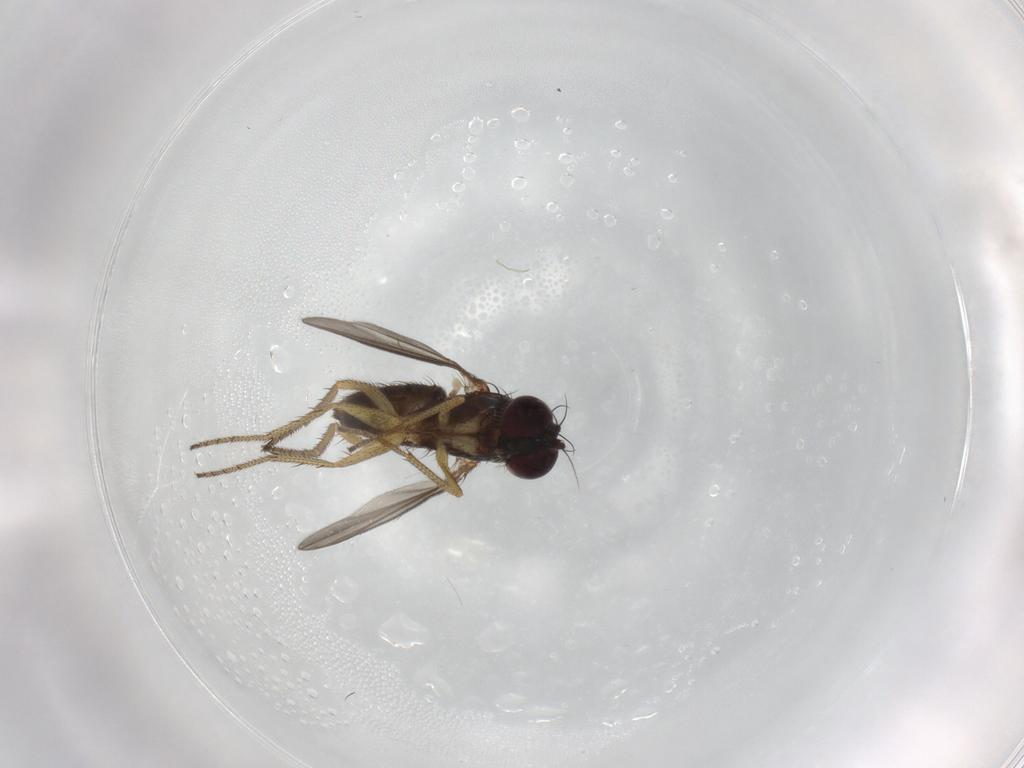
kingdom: Animalia
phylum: Arthropoda
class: Insecta
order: Diptera
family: Dolichopodidae
